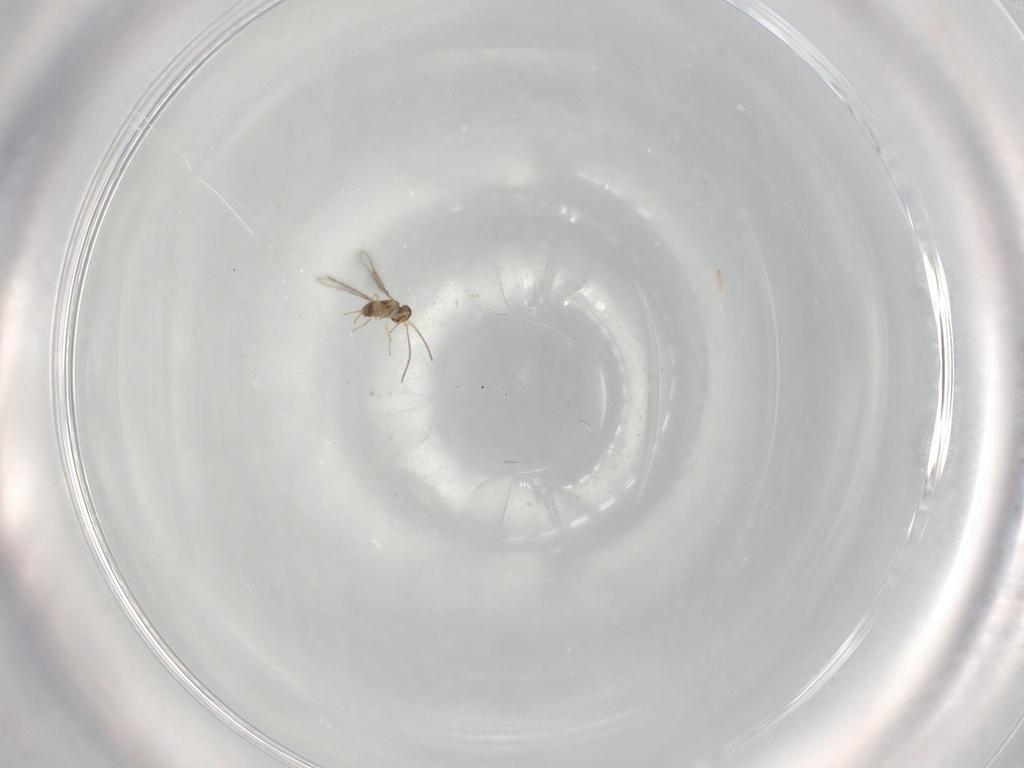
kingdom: Animalia
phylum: Arthropoda
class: Insecta
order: Hymenoptera
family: Mymaridae
